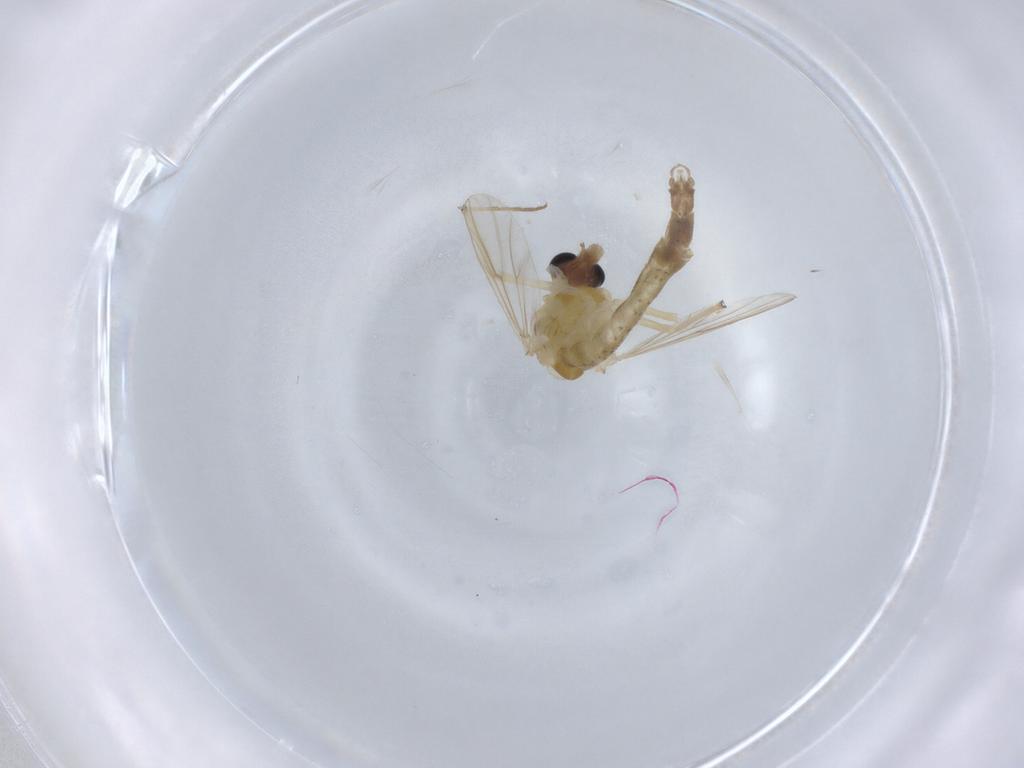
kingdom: Animalia
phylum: Arthropoda
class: Insecta
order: Diptera
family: Chironomidae
